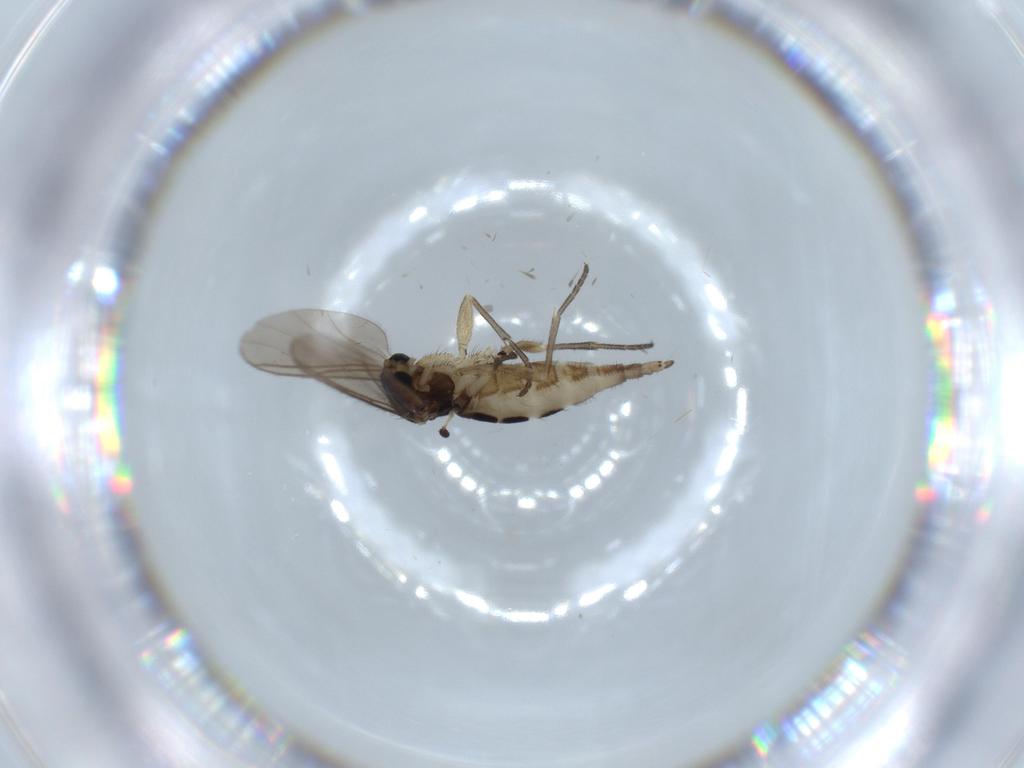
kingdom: Animalia
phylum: Arthropoda
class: Insecta
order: Diptera
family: Sciaridae
